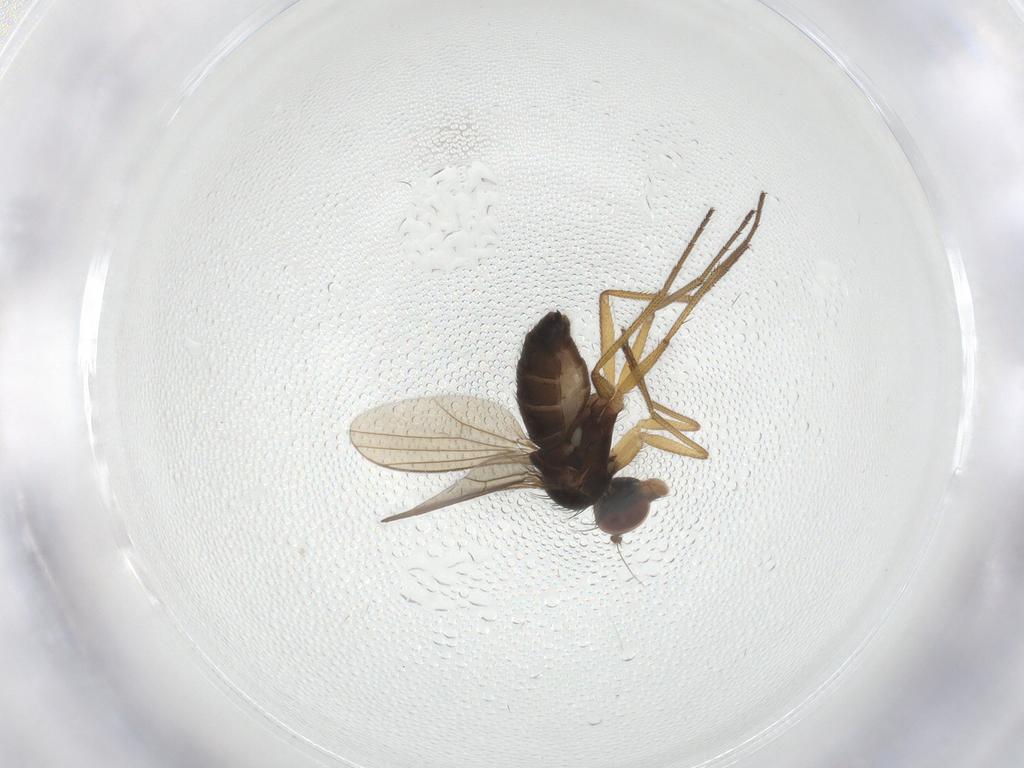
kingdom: Animalia
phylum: Arthropoda
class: Insecta
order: Diptera
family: Dolichopodidae
